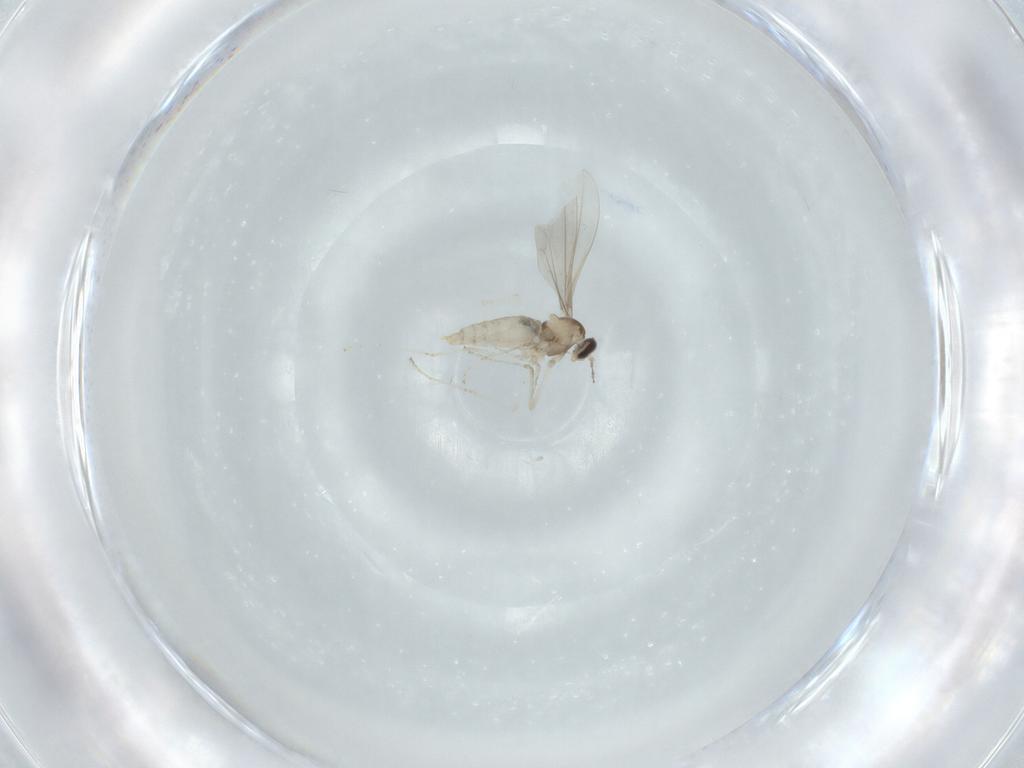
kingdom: Animalia
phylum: Arthropoda
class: Insecta
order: Diptera
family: Cecidomyiidae
